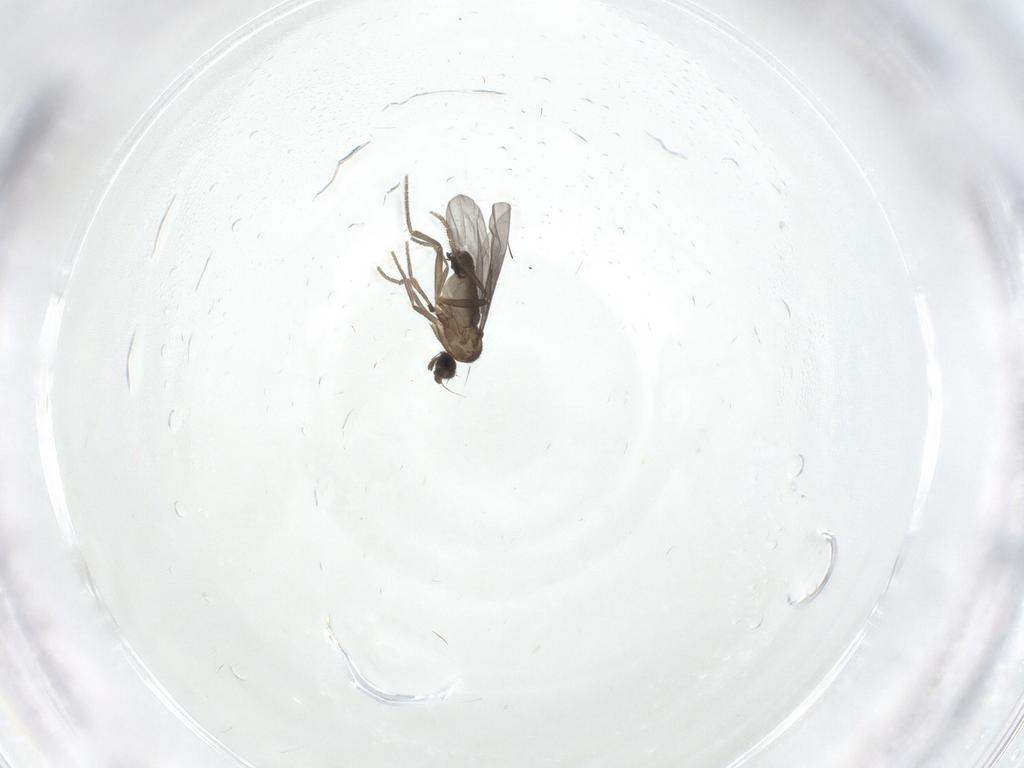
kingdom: Animalia
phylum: Arthropoda
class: Insecta
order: Diptera
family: Phoridae
